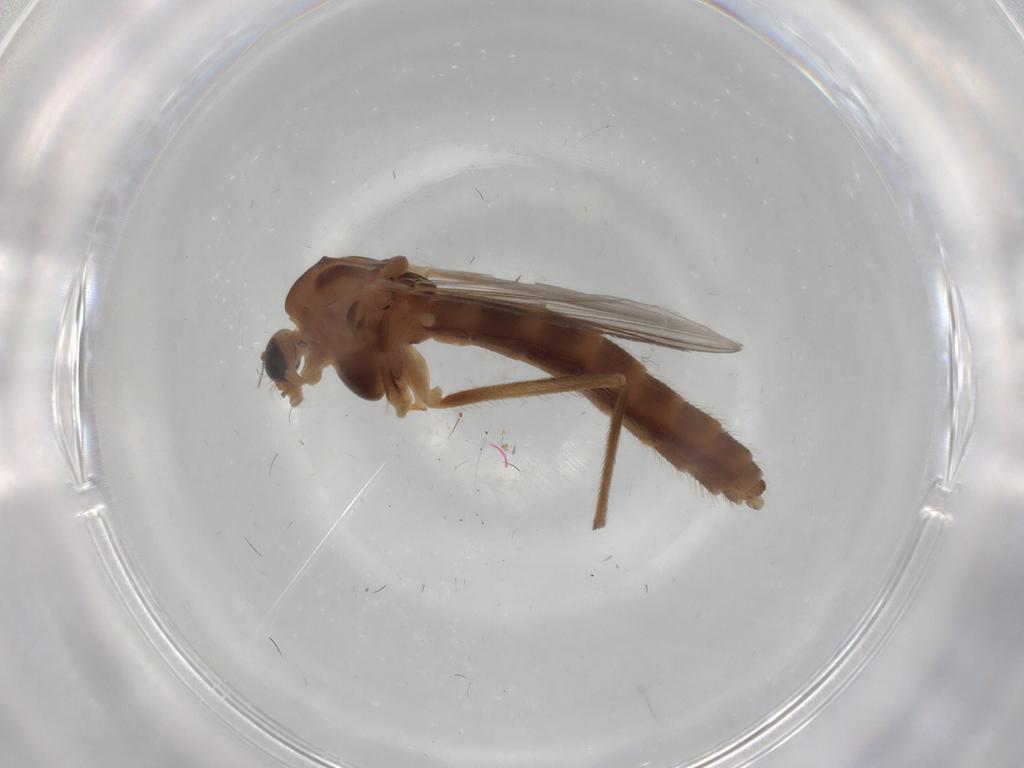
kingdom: Animalia
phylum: Arthropoda
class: Insecta
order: Diptera
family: Chironomidae
